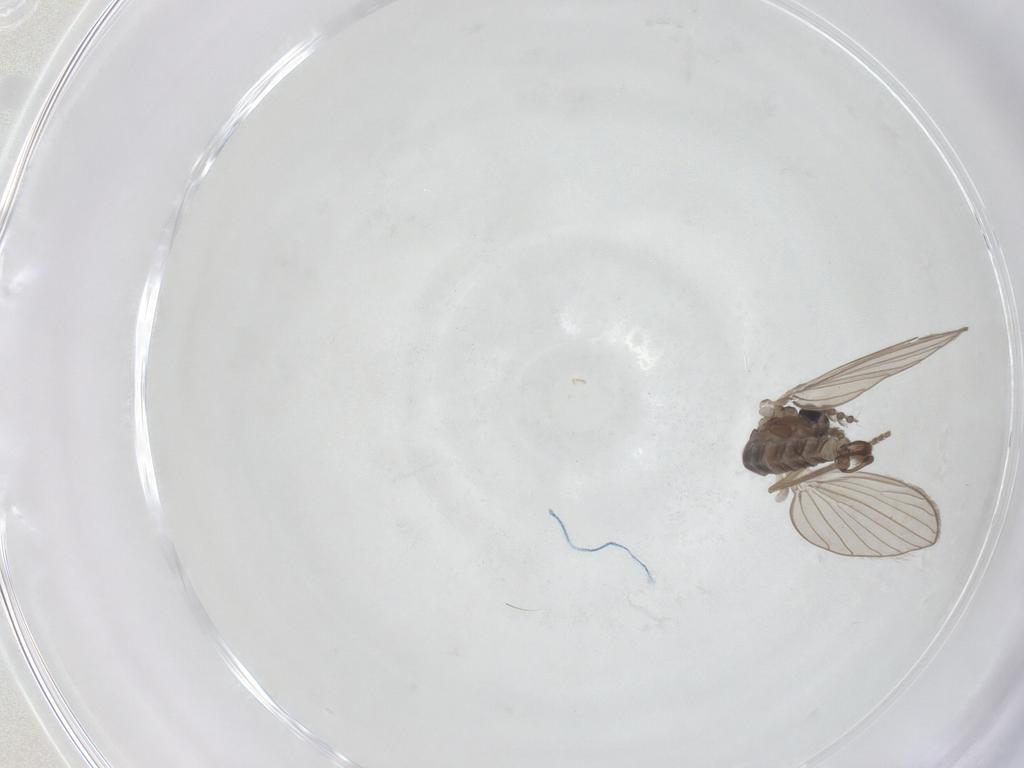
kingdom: Animalia
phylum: Arthropoda
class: Insecta
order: Diptera
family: Psychodidae
